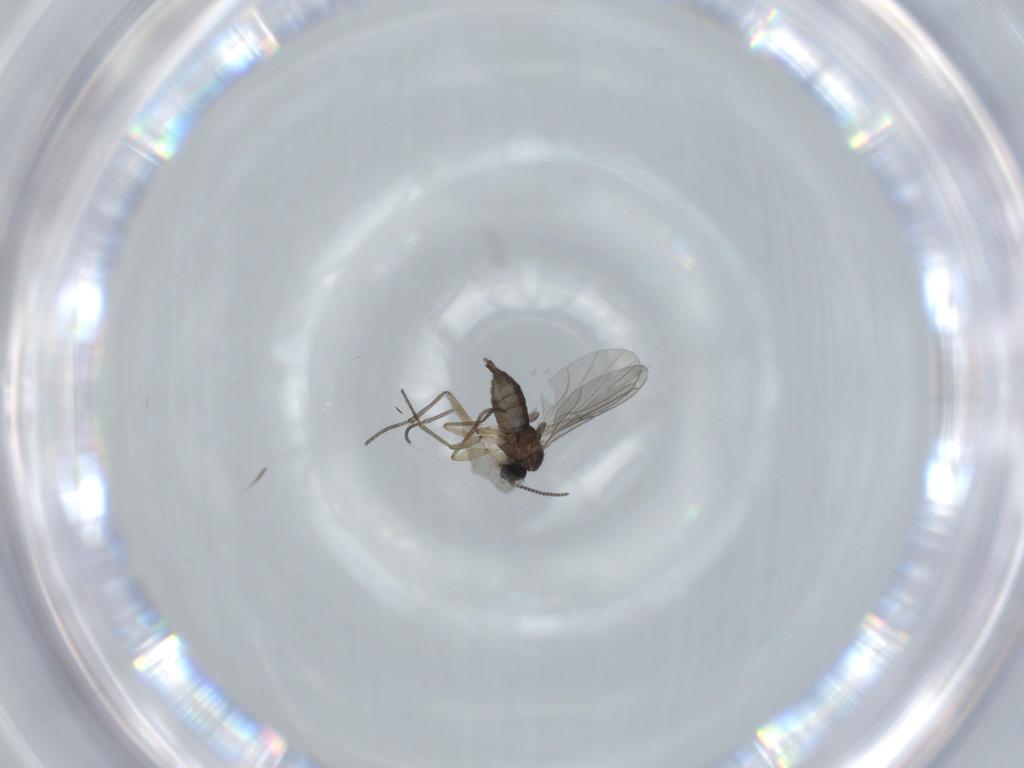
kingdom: Animalia
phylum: Arthropoda
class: Insecta
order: Diptera
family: Sciaridae
